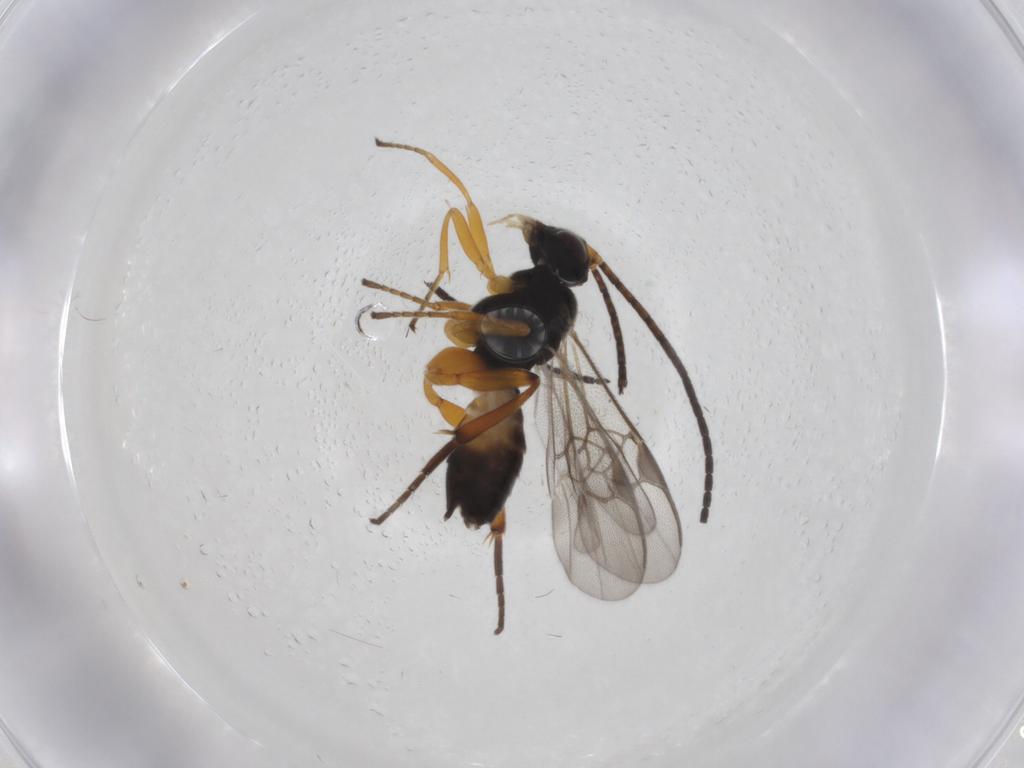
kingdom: Animalia
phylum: Arthropoda
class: Insecta
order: Hymenoptera
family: Braconidae
